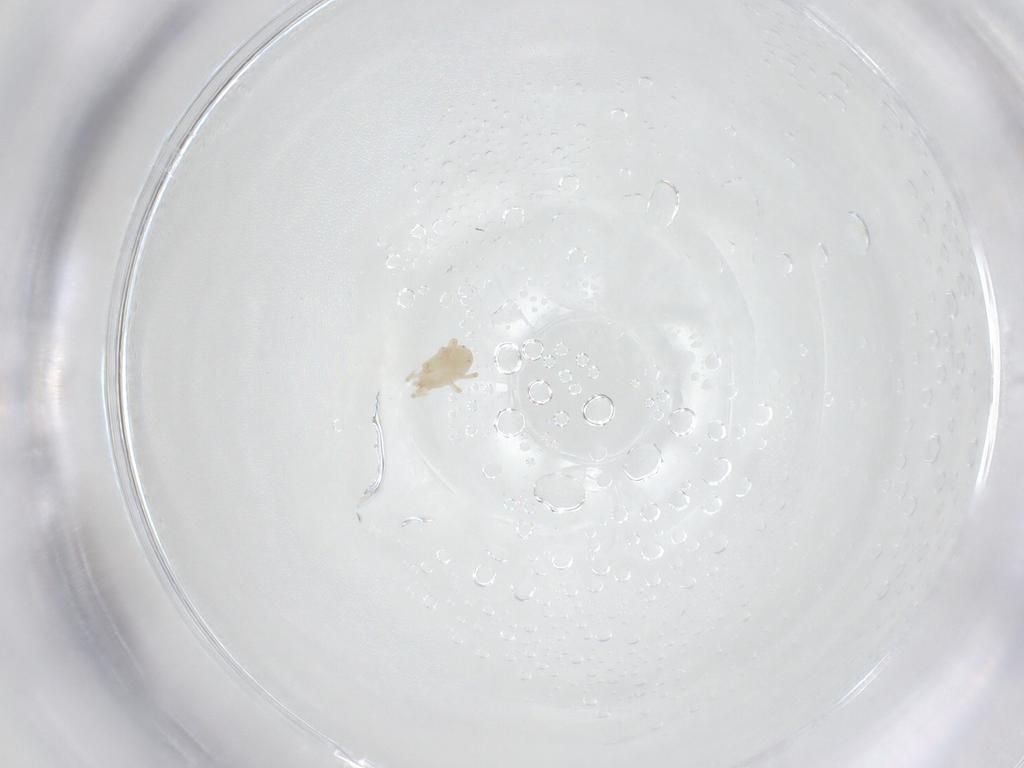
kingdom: Animalia
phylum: Arthropoda
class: Arachnida
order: Sarcoptiformes
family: Humerobatidae
